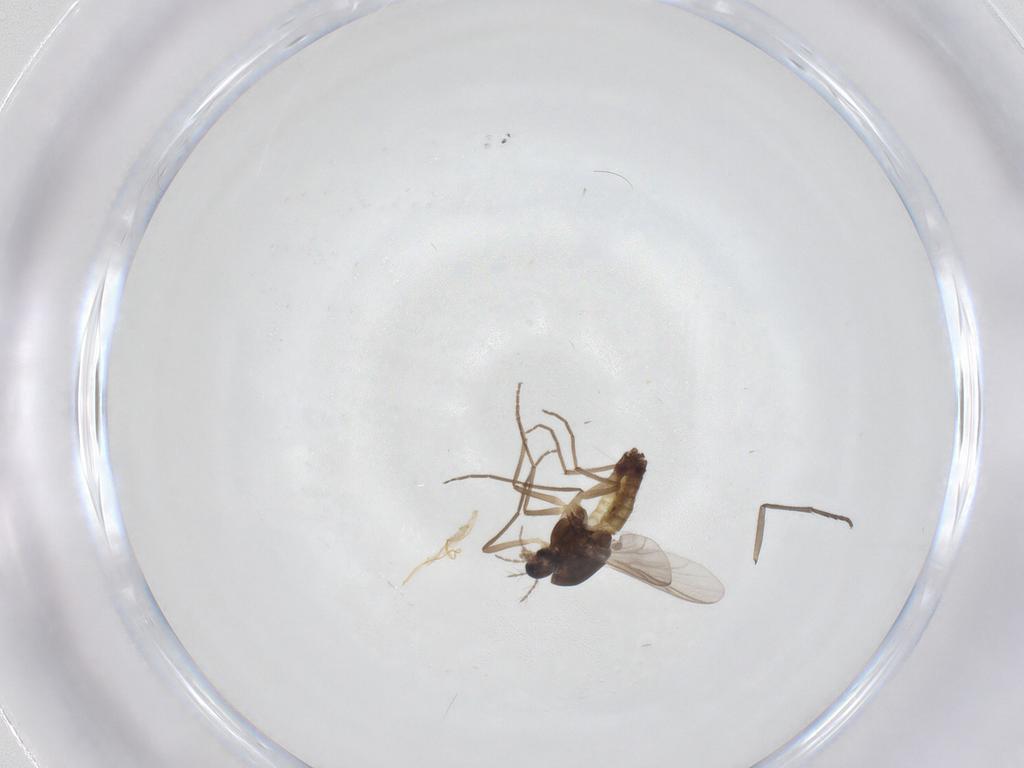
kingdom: Animalia
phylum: Arthropoda
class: Insecta
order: Diptera
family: Chironomidae
